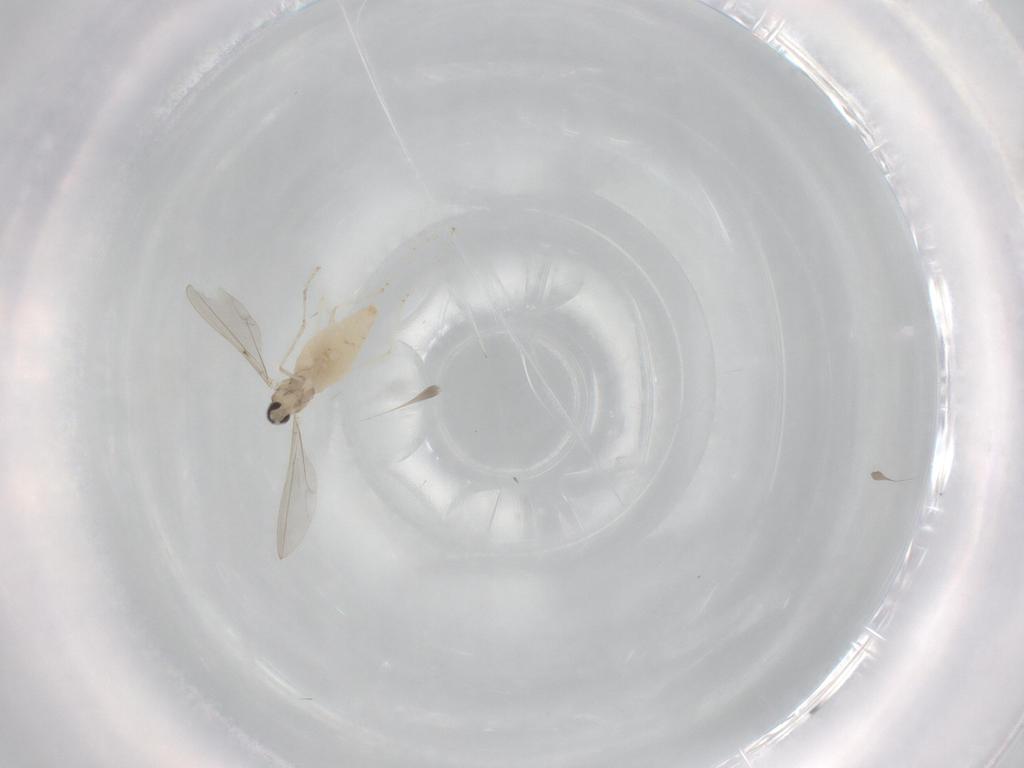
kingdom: Animalia
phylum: Arthropoda
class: Insecta
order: Diptera
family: Cecidomyiidae
